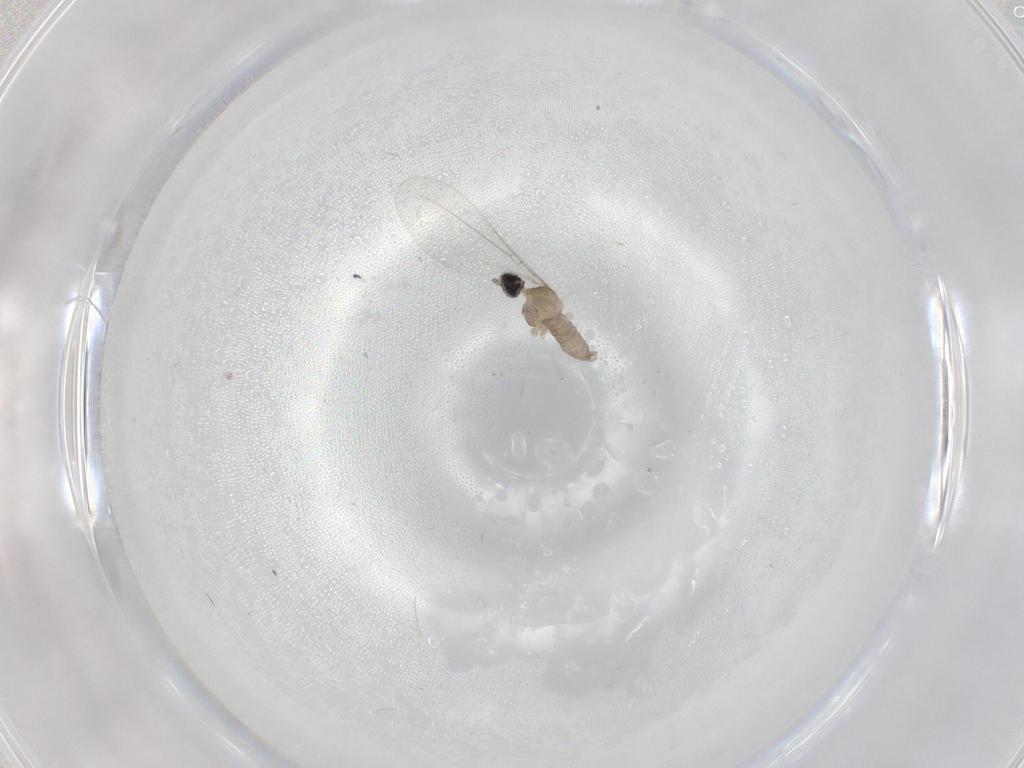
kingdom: Animalia
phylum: Arthropoda
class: Insecta
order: Diptera
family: Cecidomyiidae
